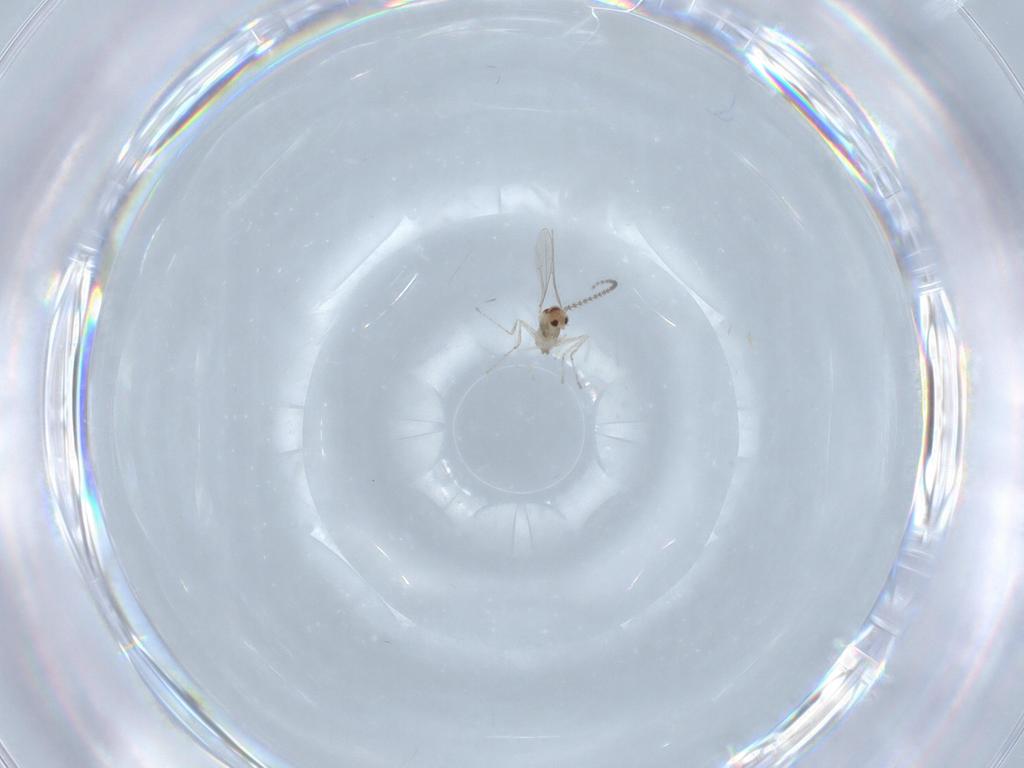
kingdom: Animalia
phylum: Arthropoda
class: Insecta
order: Diptera
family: Cecidomyiidae
